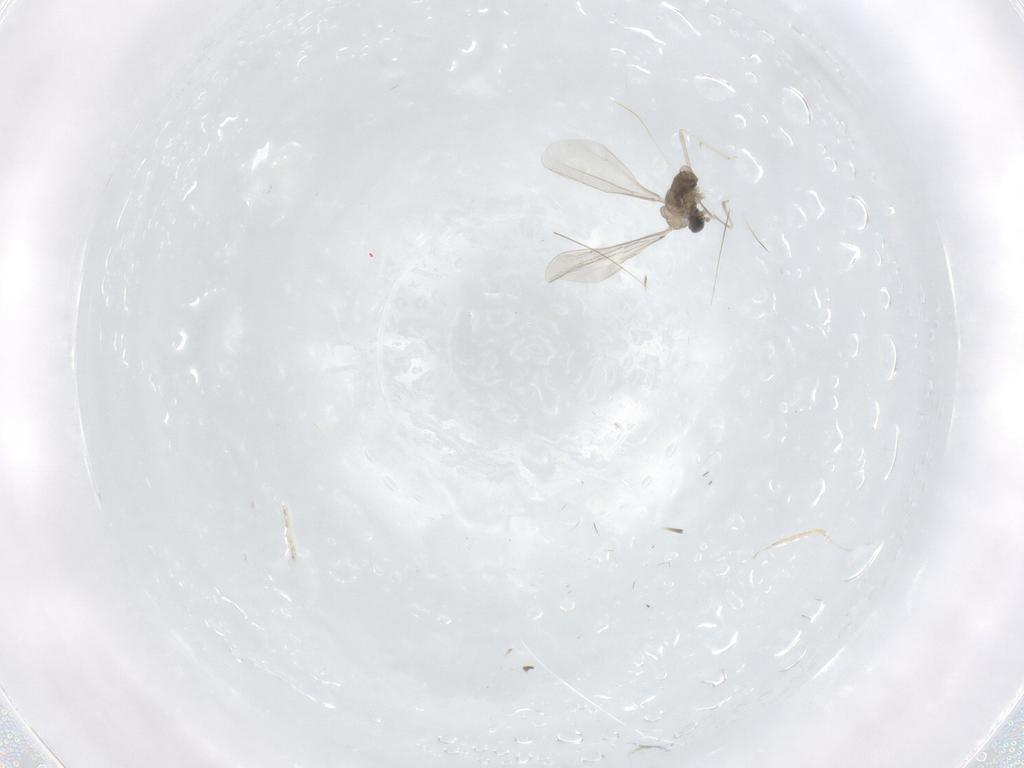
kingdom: Animalia
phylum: Arthropoda
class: Insecta
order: Diptera
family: Cecidomyiidae
